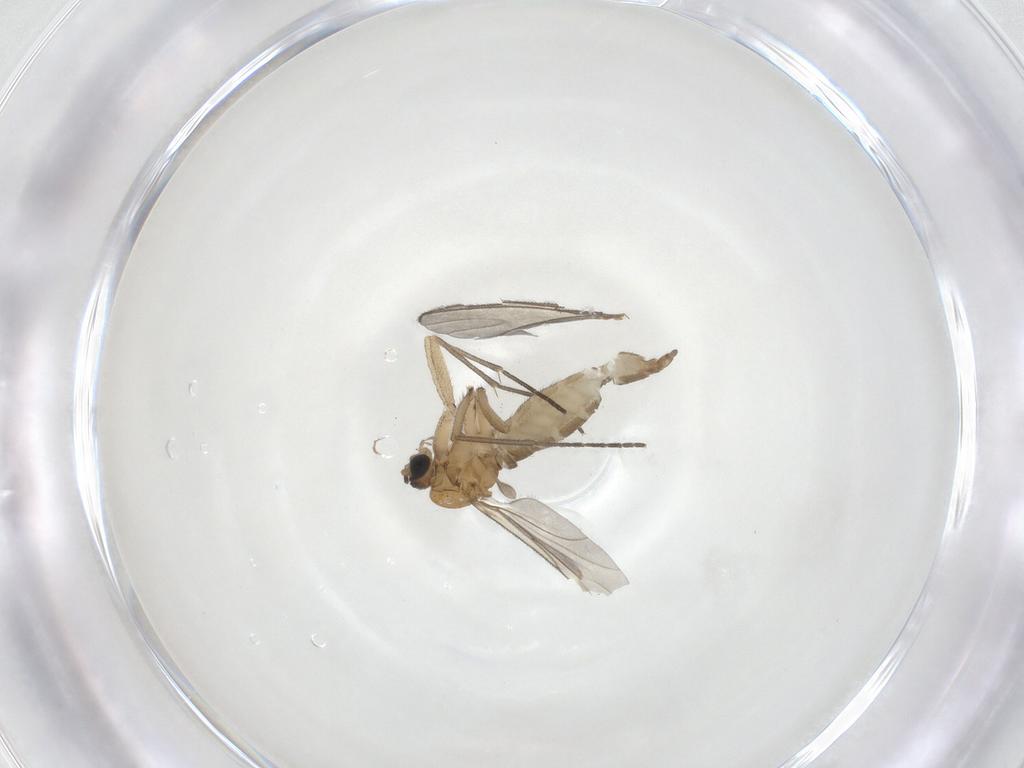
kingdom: Animalia
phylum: Arthropoda
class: Insecta
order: Diptera
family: Sciaridae
